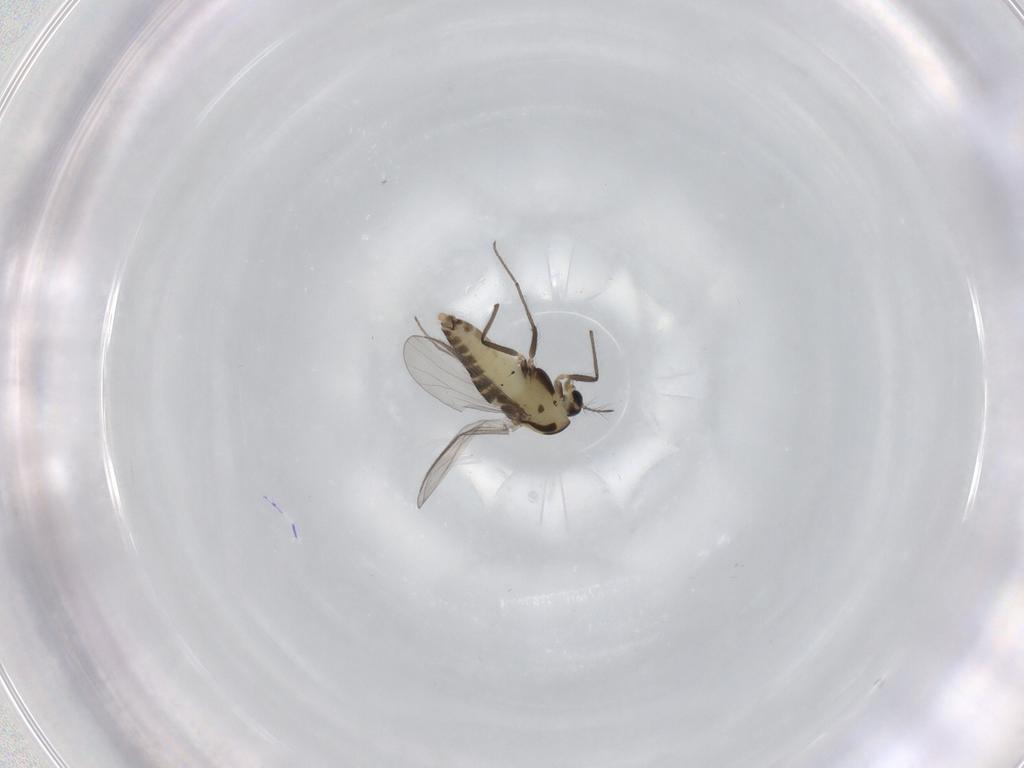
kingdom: Animalia
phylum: Arthropoda
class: Insecta
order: Diptera
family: Chironomidae
